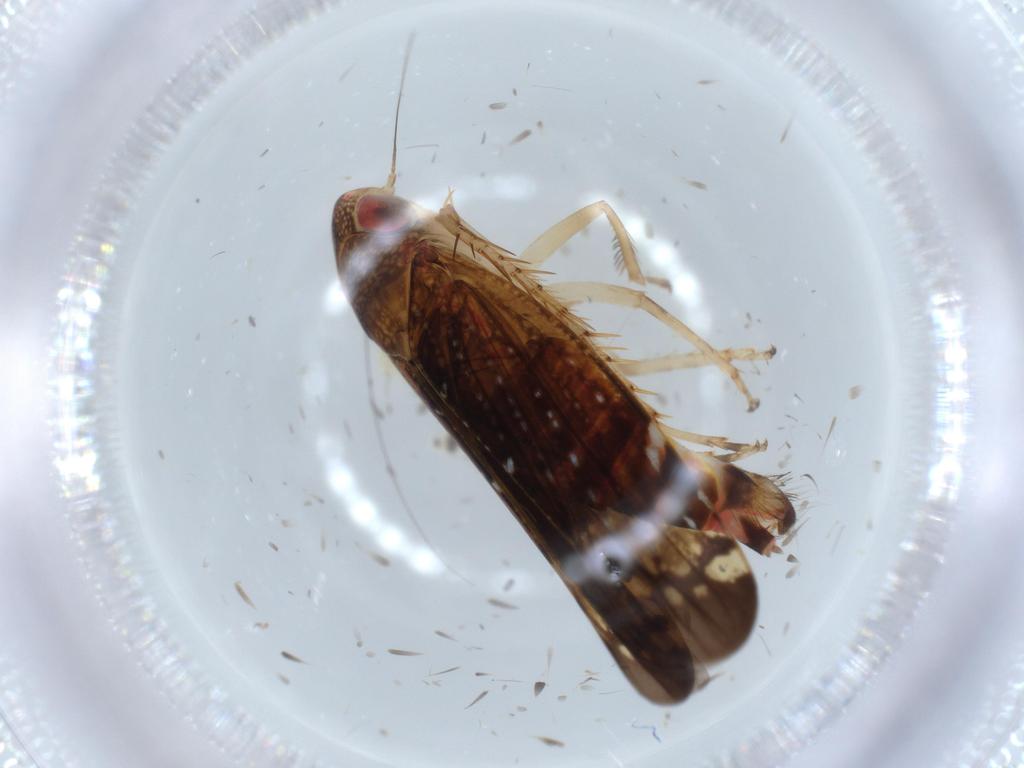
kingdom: Animalia
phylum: Arthropoda
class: Insecta
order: Hemiptera
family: Cicadellidae
